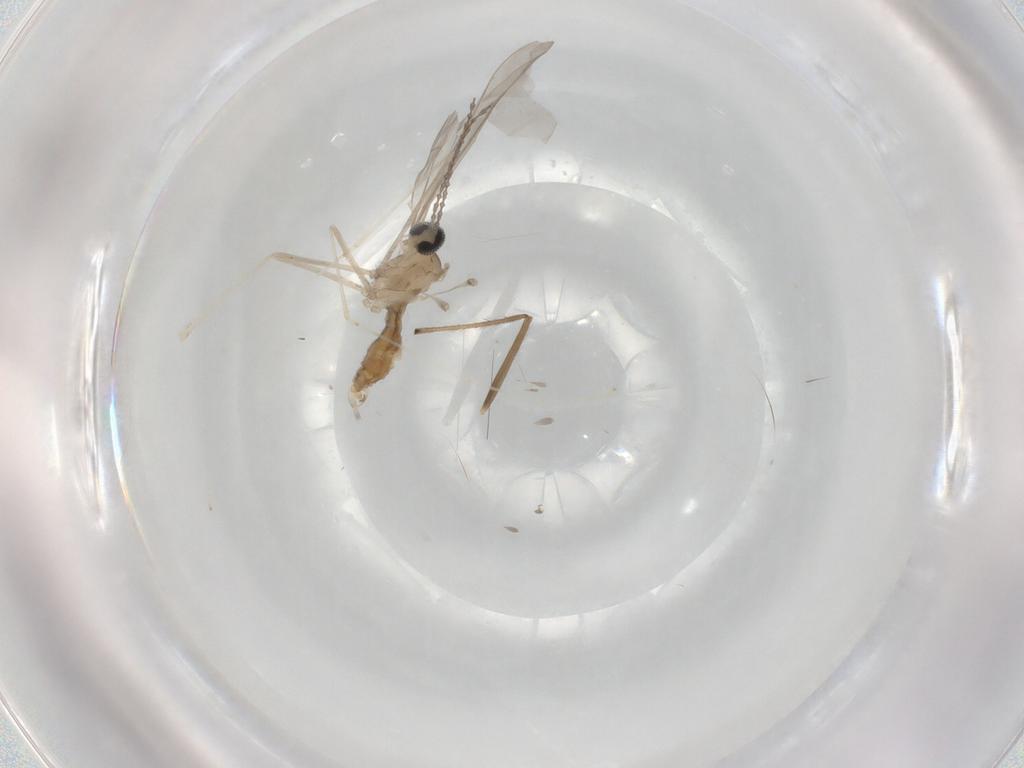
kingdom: Animalia
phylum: Arthropoda
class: Insecta
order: Diptera
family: Cecidomyiidae
